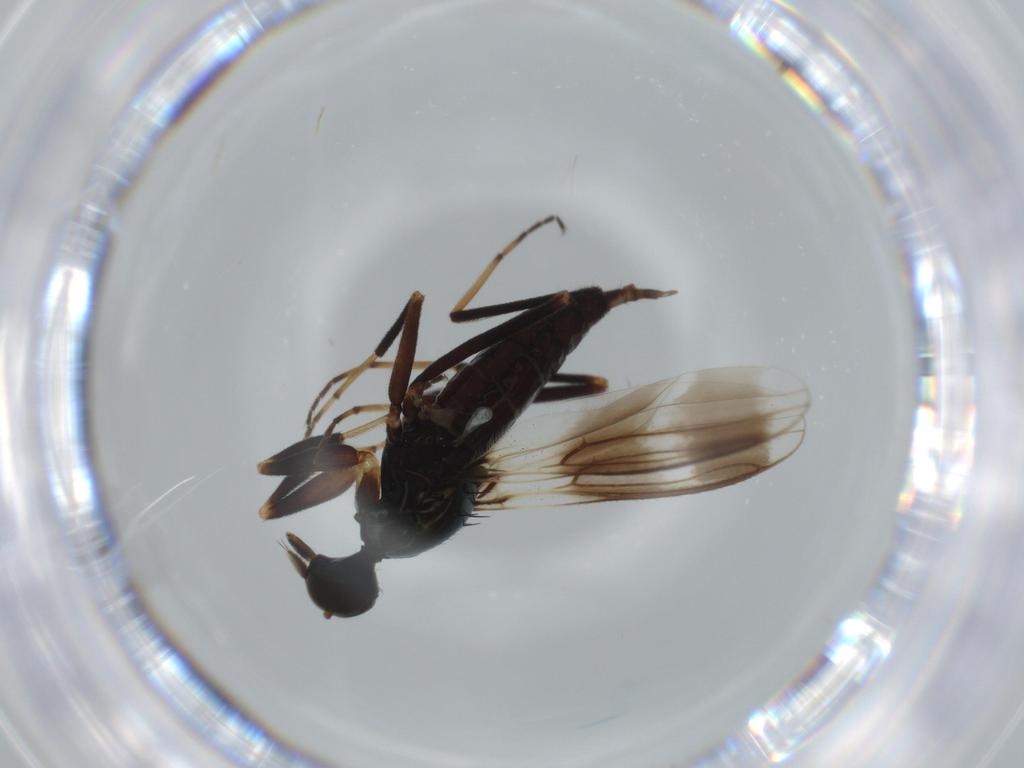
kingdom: Animalia
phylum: Arthropoda
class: Insecta
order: Diptera
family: Hybotidae
